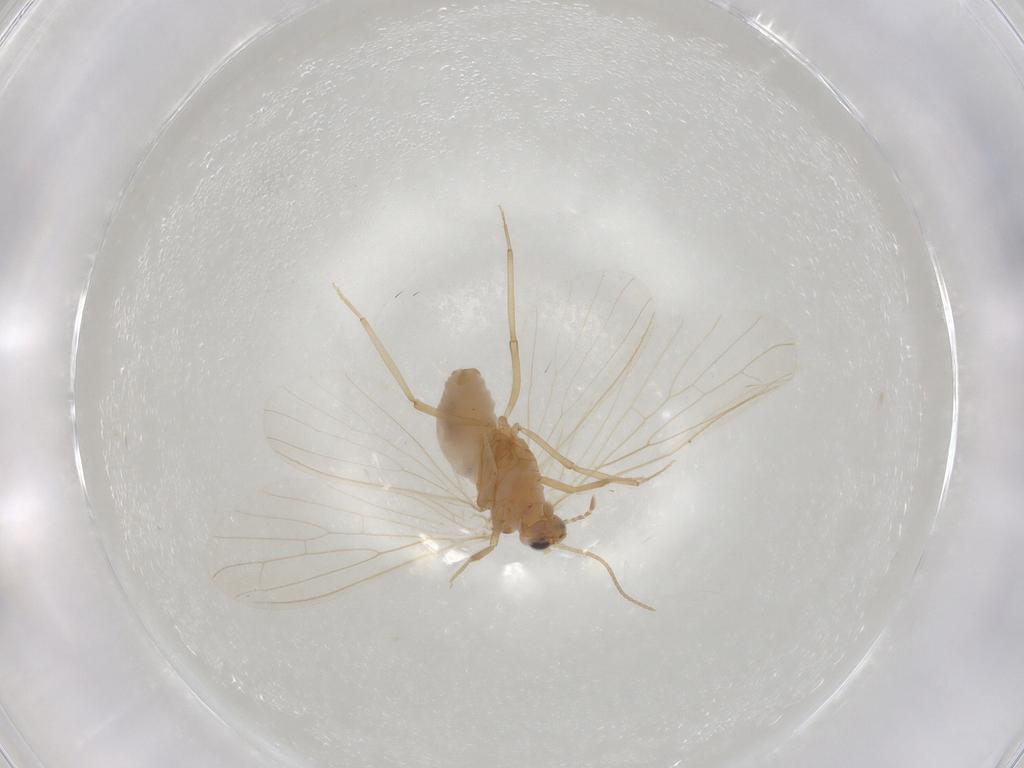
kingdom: Animalia
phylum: Arthropoda
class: Insecta
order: Neuroptera
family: Coniopterygidae
